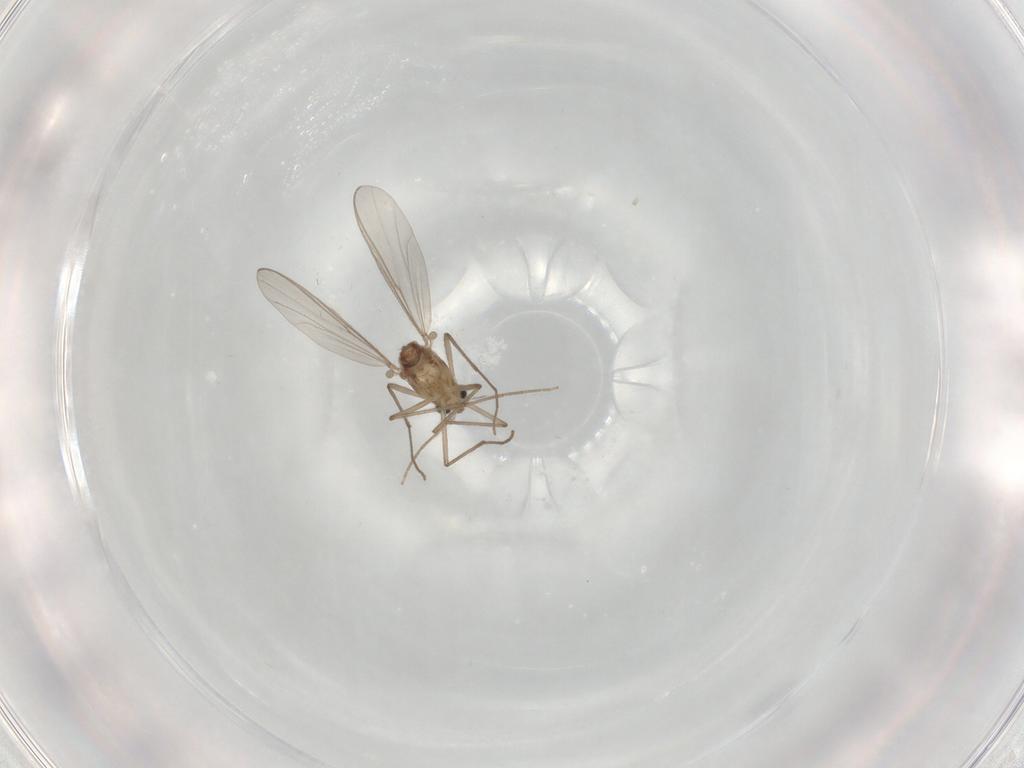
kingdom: Animalia
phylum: Arthropoda
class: Insecta
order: Diptera
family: Chironomidae
